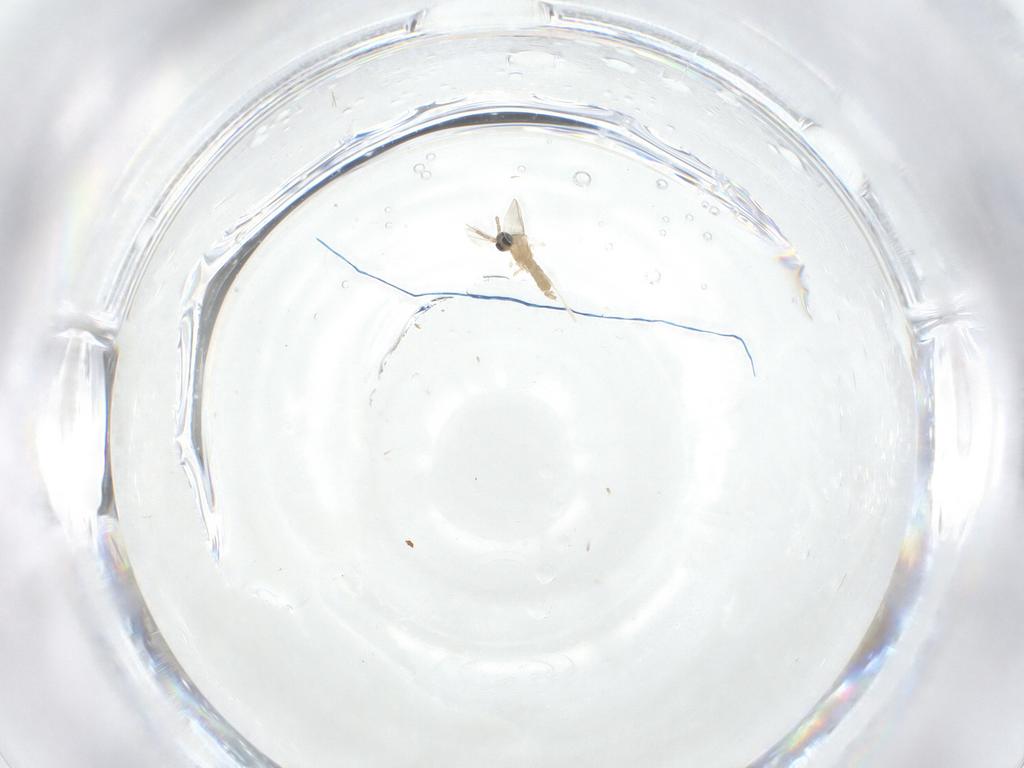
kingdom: Animalia
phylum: Arthropoda
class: Insecta
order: Diptera
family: Cecidomyiidae
